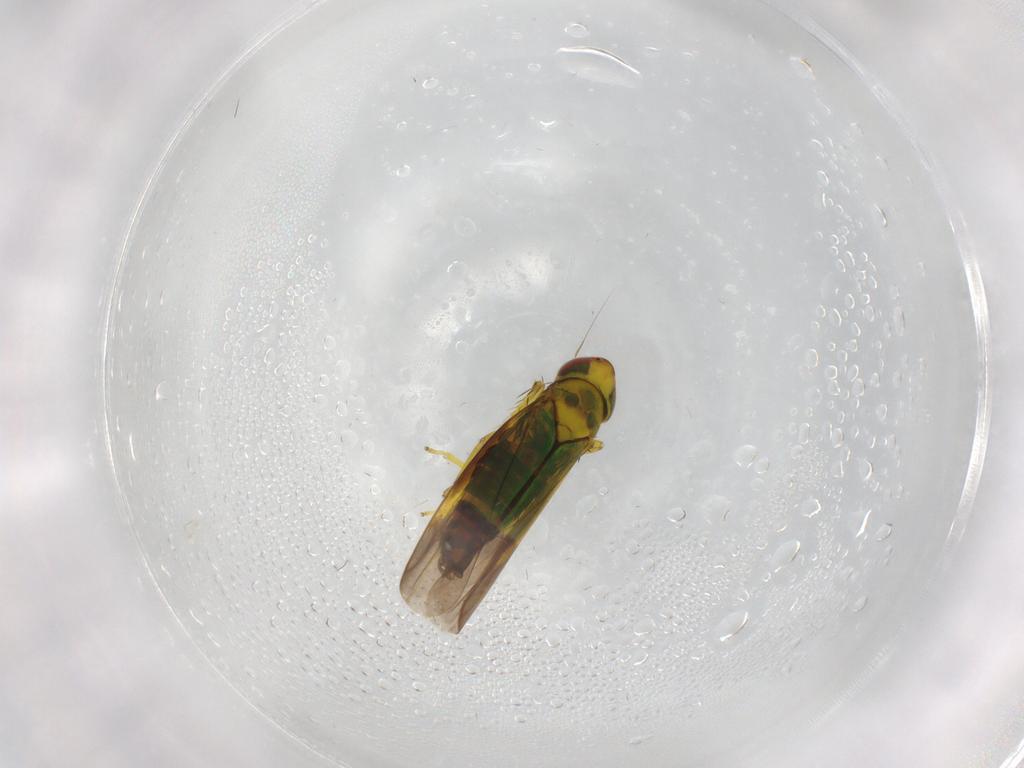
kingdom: Animalia
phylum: Arthropoda
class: Insecta
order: Hemiptera
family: Cicadellidae
